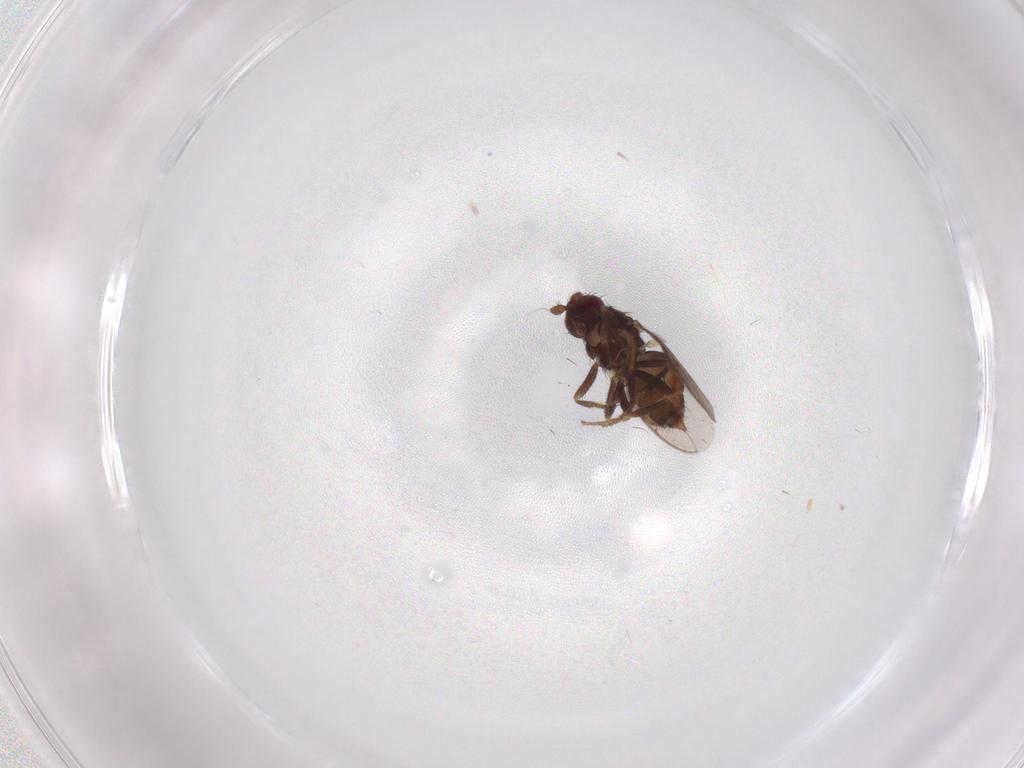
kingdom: Animalia
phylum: Arthropoda
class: Insecta
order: Diptera
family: Sphaeroceridae
